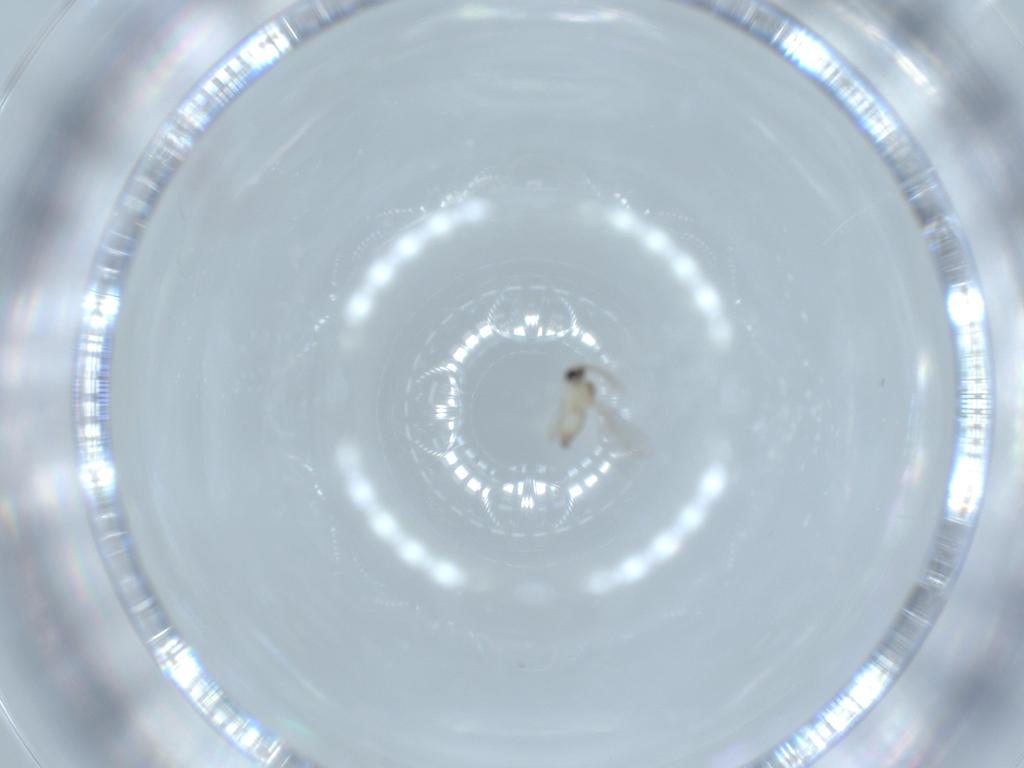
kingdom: Animalia
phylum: Arthropoda
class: Insecta
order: Diptera
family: Cecidomyiidae
